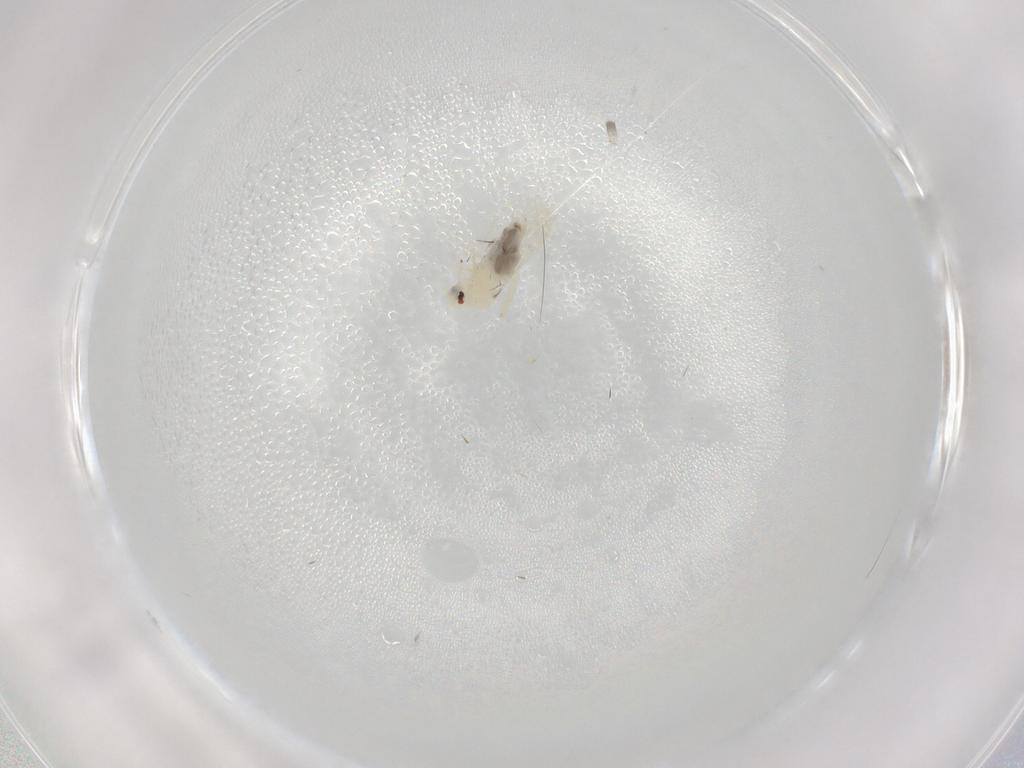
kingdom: Animalia
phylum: Arthropoda
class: Insecta
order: Hemiptera
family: Aleyrodidae
